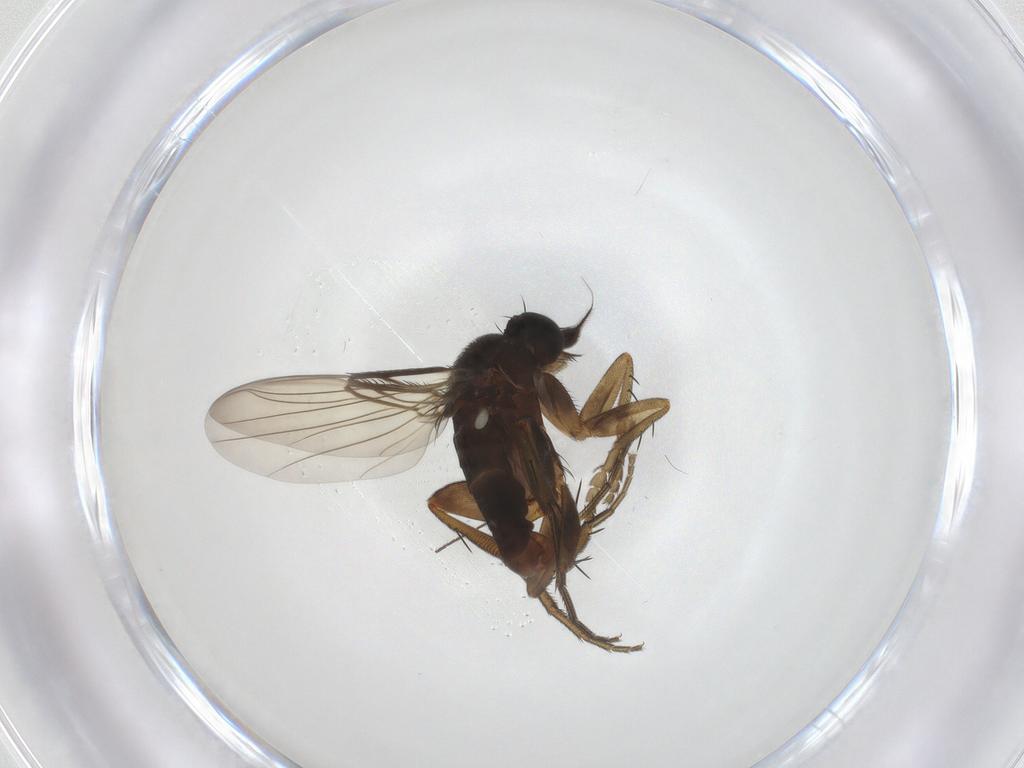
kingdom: Animalia
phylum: Arthropoda
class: Insecta
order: Diptera
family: Phoridae
